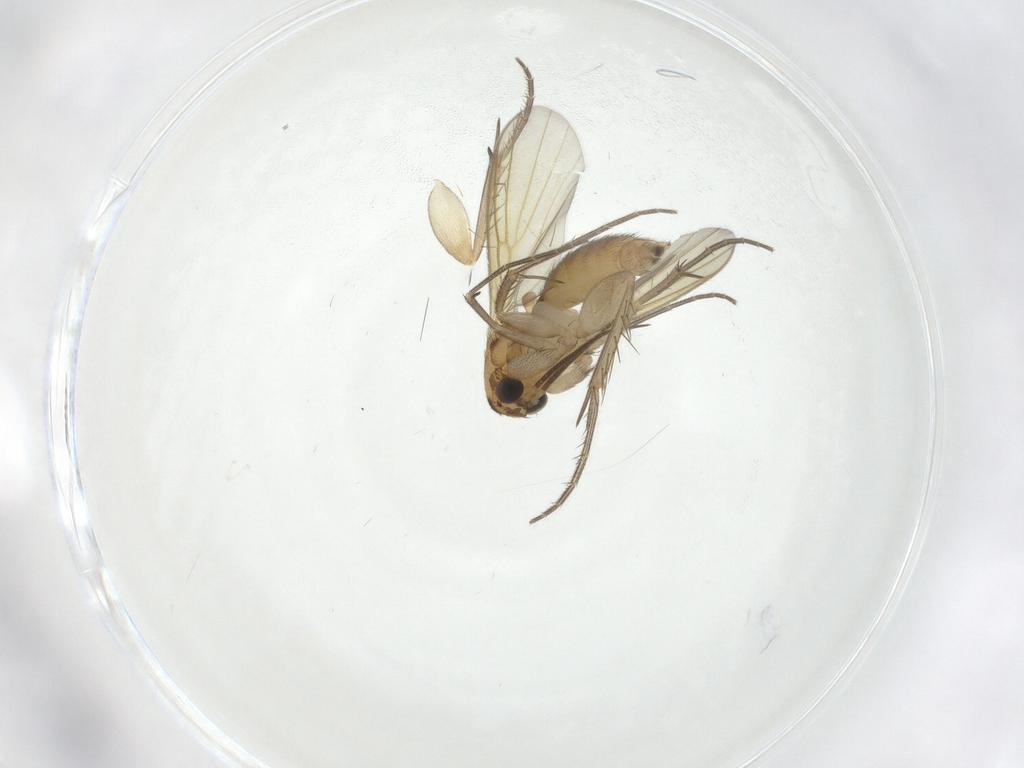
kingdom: Animalia
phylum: Arthropoda
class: Insecta
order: Diptera
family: Mycetophilidae
